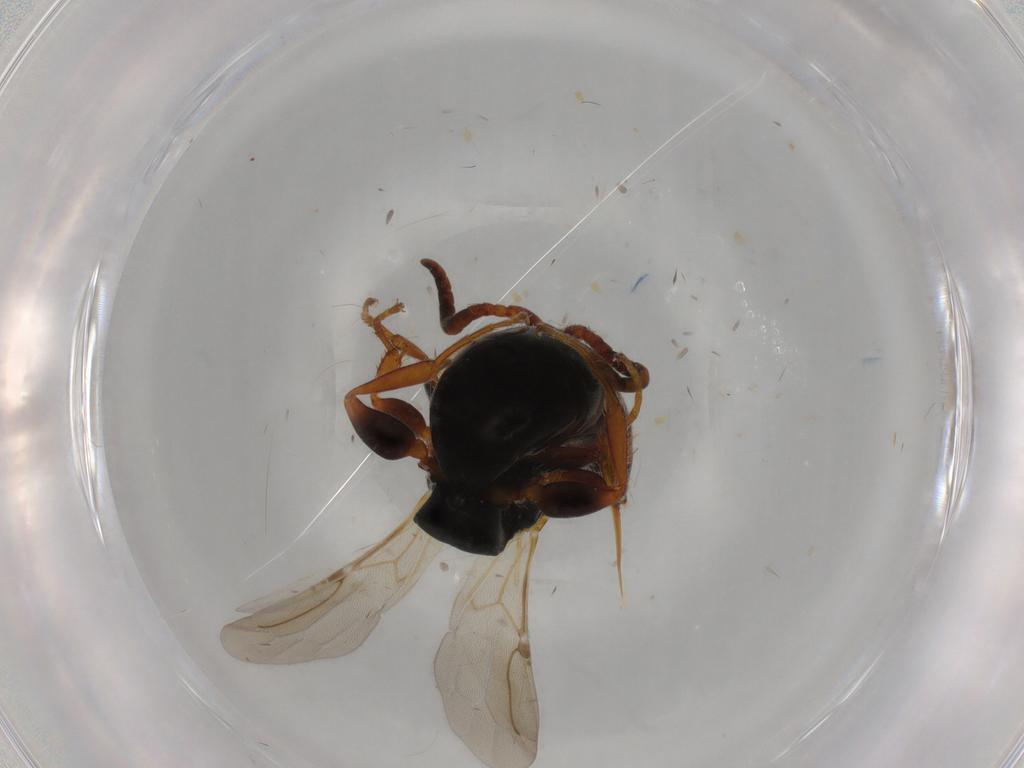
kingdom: Animalia
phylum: Arthropoda
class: Insecta
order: Hymenoptera
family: Bethylidae
